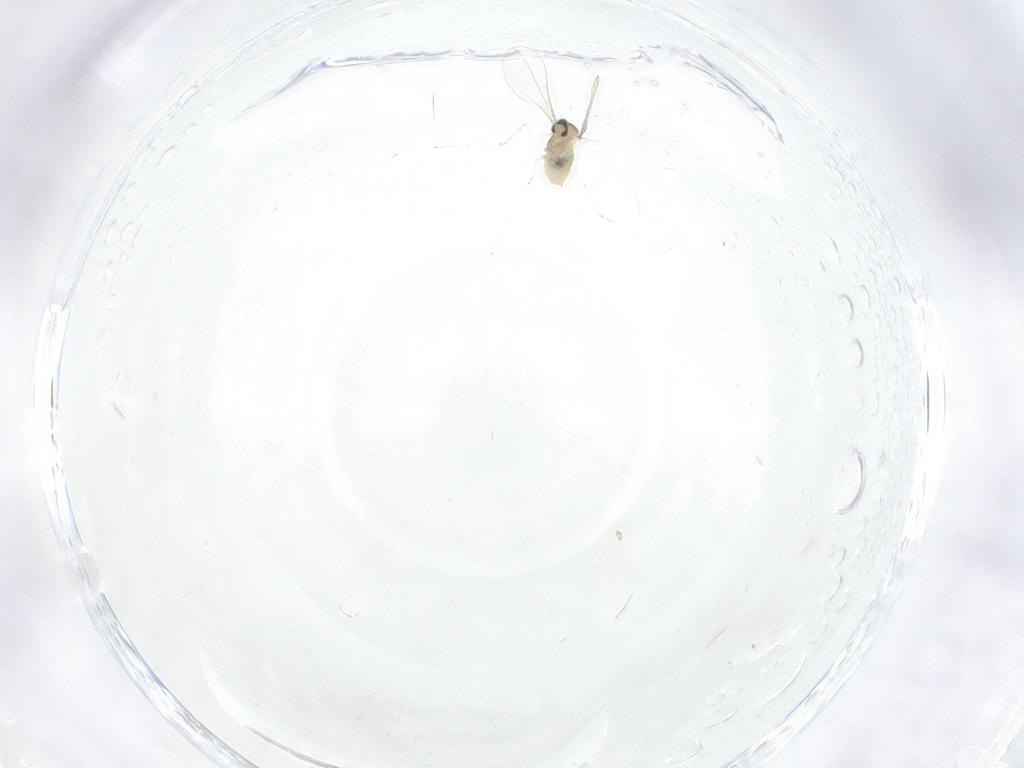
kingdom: Animalia
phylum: Arthropoda
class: Insecta
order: Diptera
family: Cecidomyiidae
